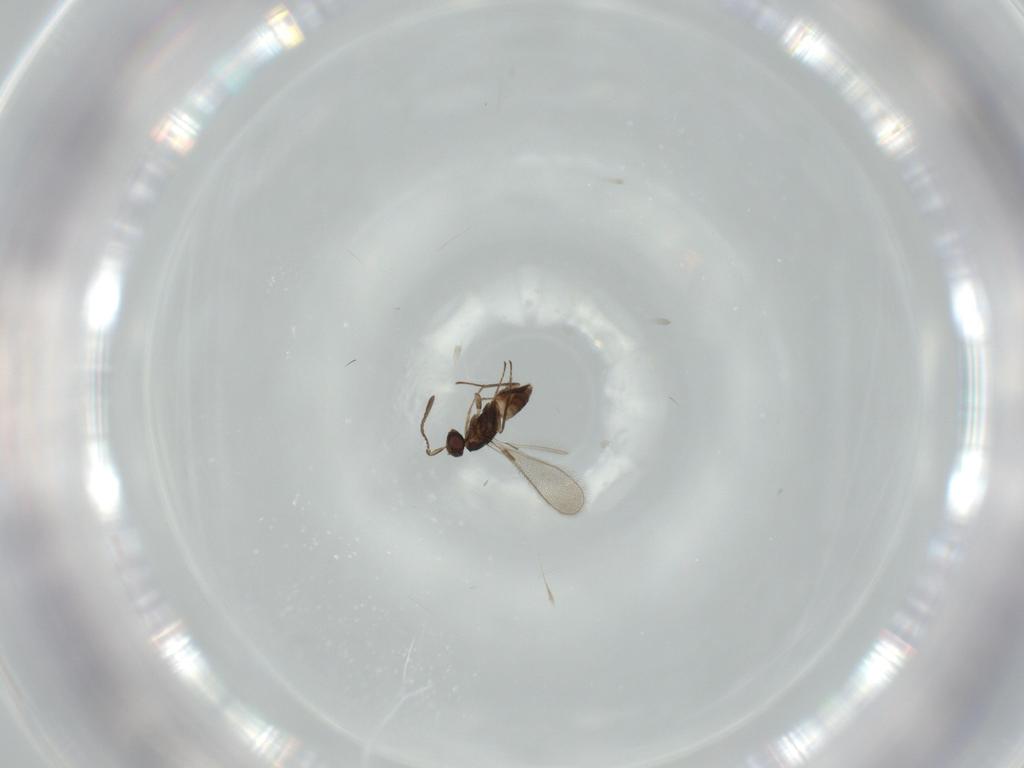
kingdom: Animalia
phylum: Arthropoda
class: Insecta
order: Hymenoptera
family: Mymaridae
